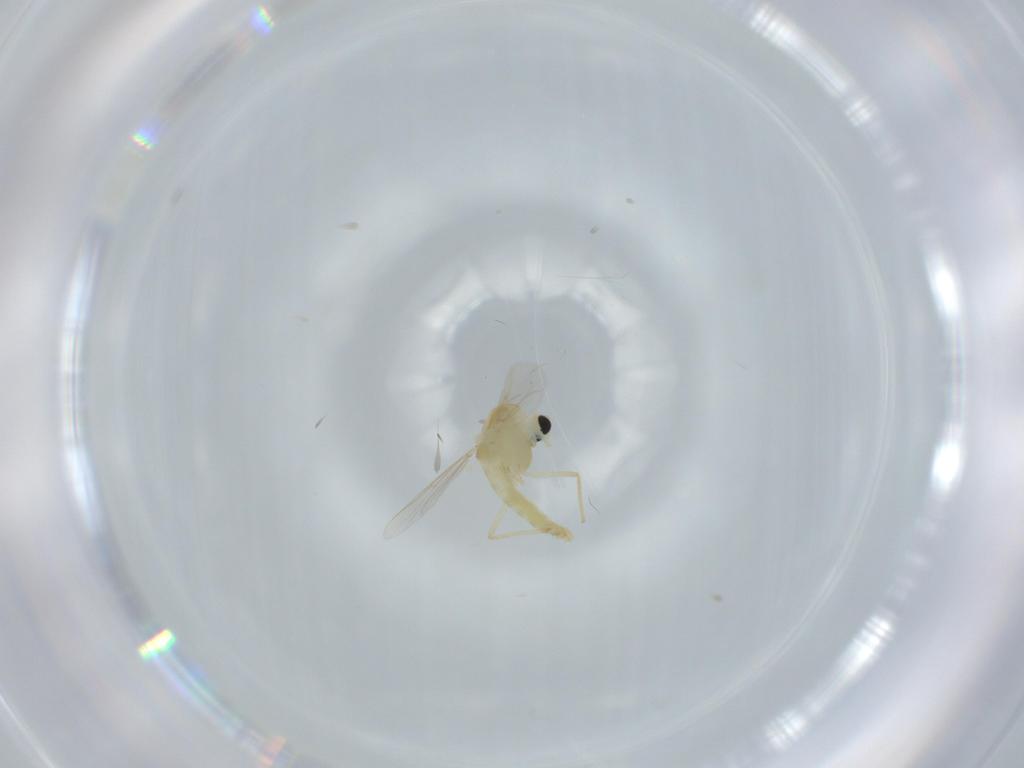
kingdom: Animalia
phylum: Arthropoda
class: Insecta
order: Diptera
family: Chironomidae
